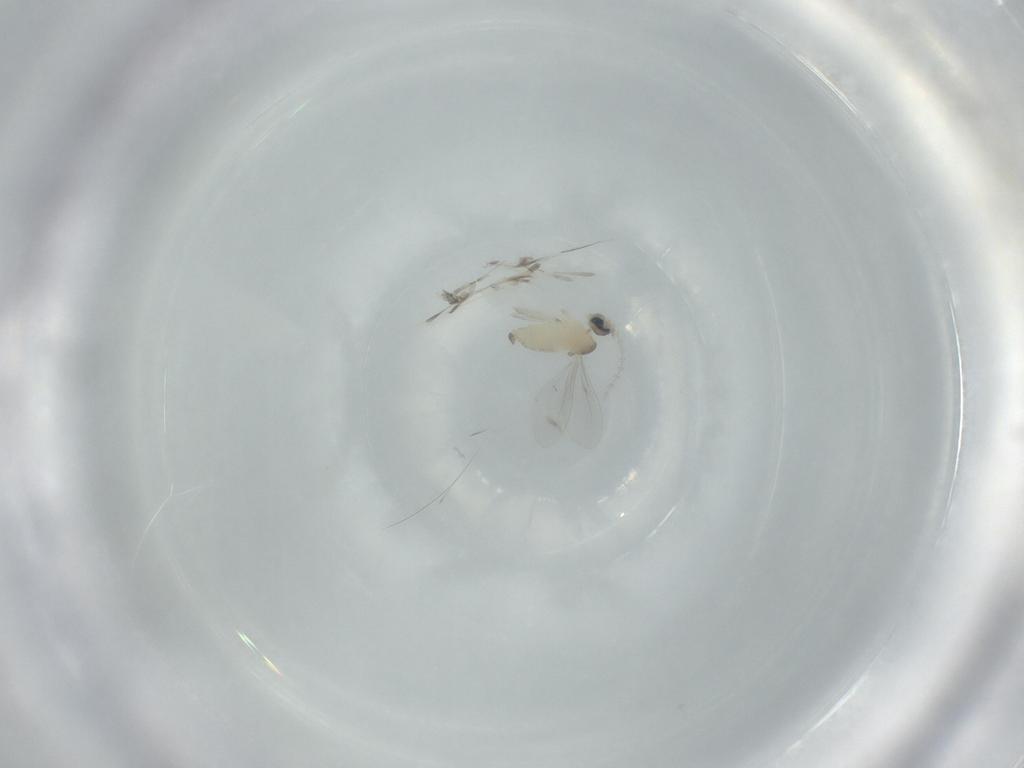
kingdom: Animalia
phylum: Arthropoda
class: Insecta
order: Diptera
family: Cecidomyiidae
